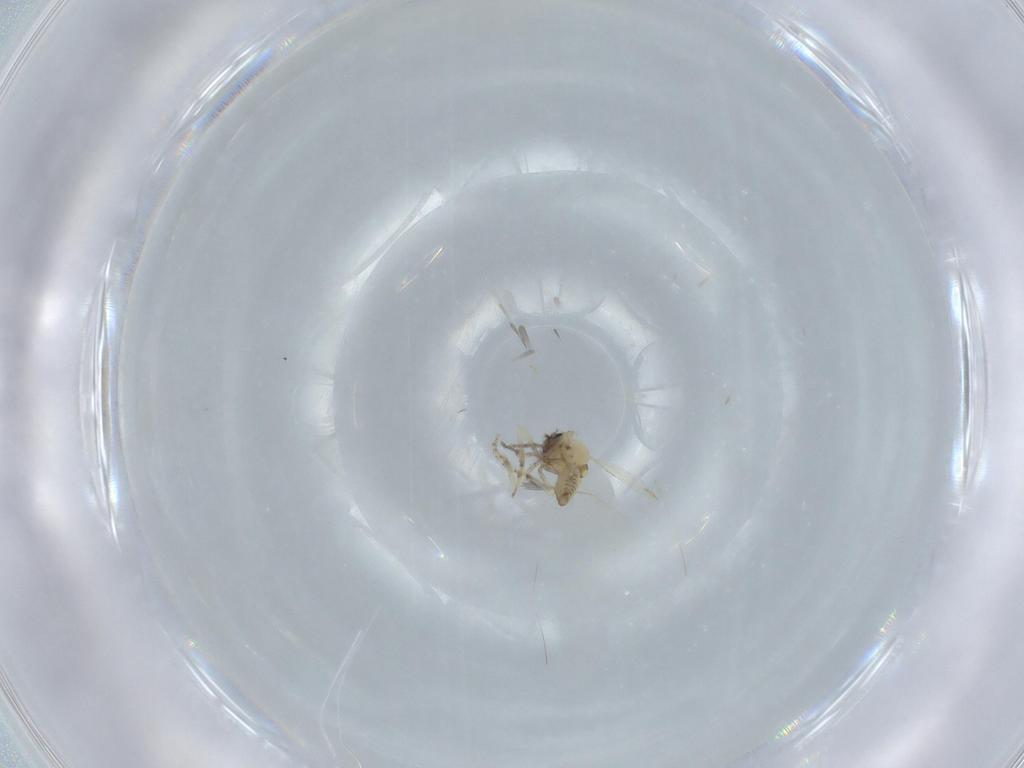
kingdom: Animalia
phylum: Arthropoda
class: Insecta
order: Diptera
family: Ceratopogonidae
